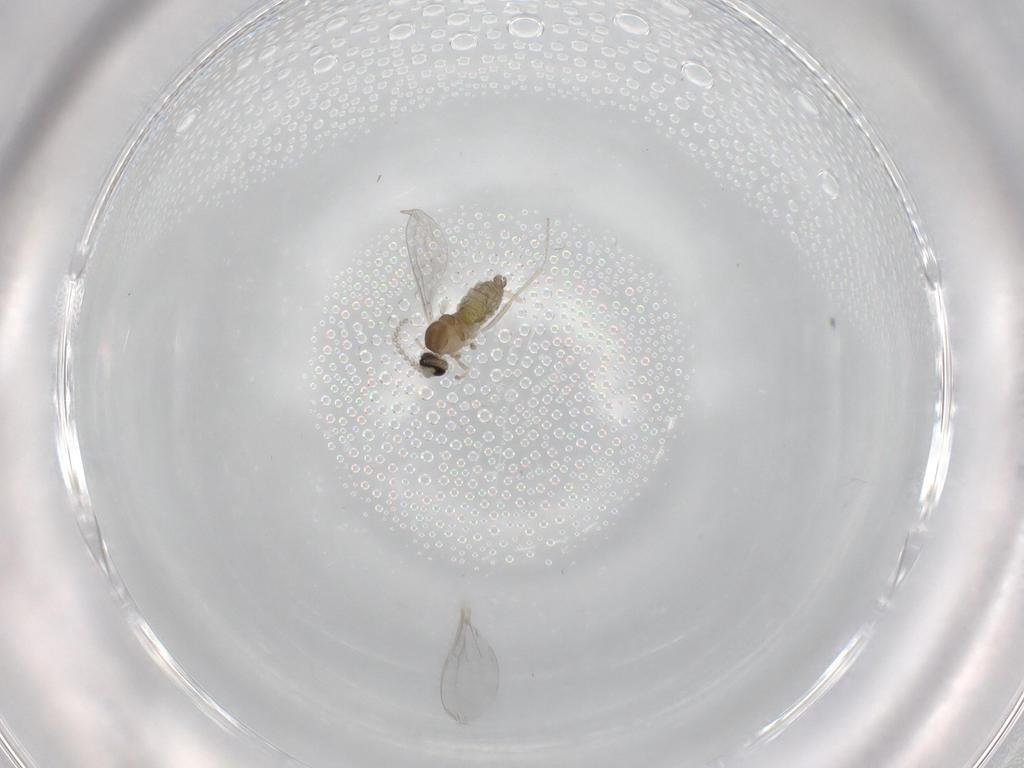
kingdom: Animalia
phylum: Arthropoda
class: Insecta
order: Diptera
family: Cecidomyiidae
